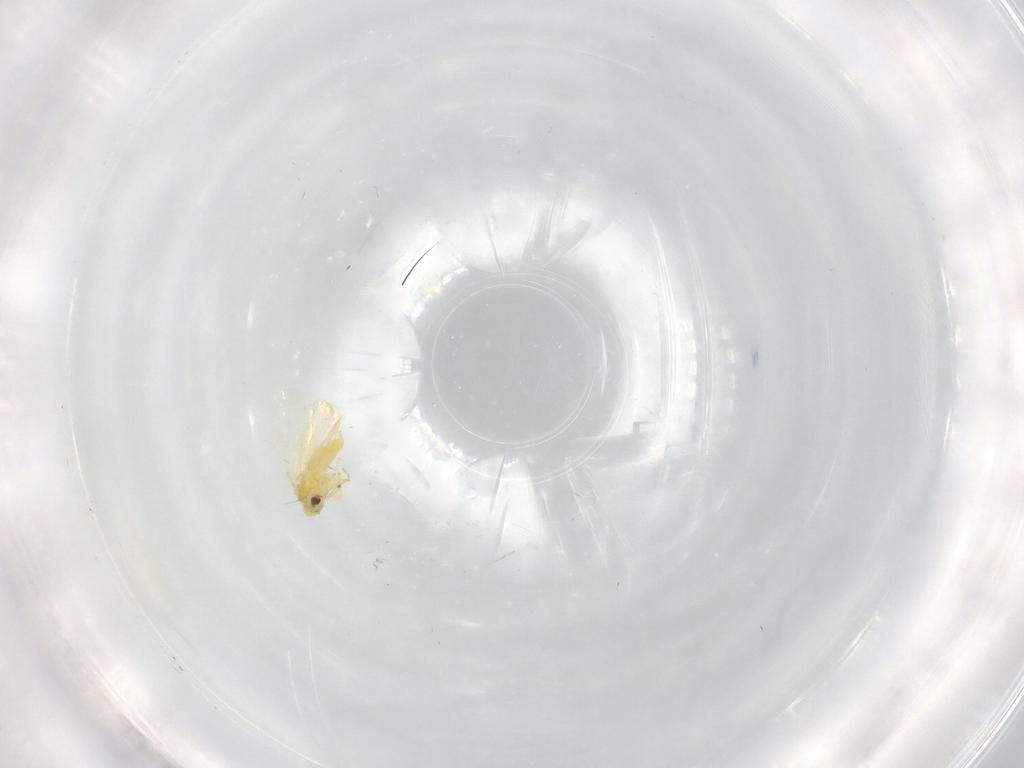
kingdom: Animalia
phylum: Arthropoda
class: Insecta
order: Hemiptera
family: Aleyrodidae
